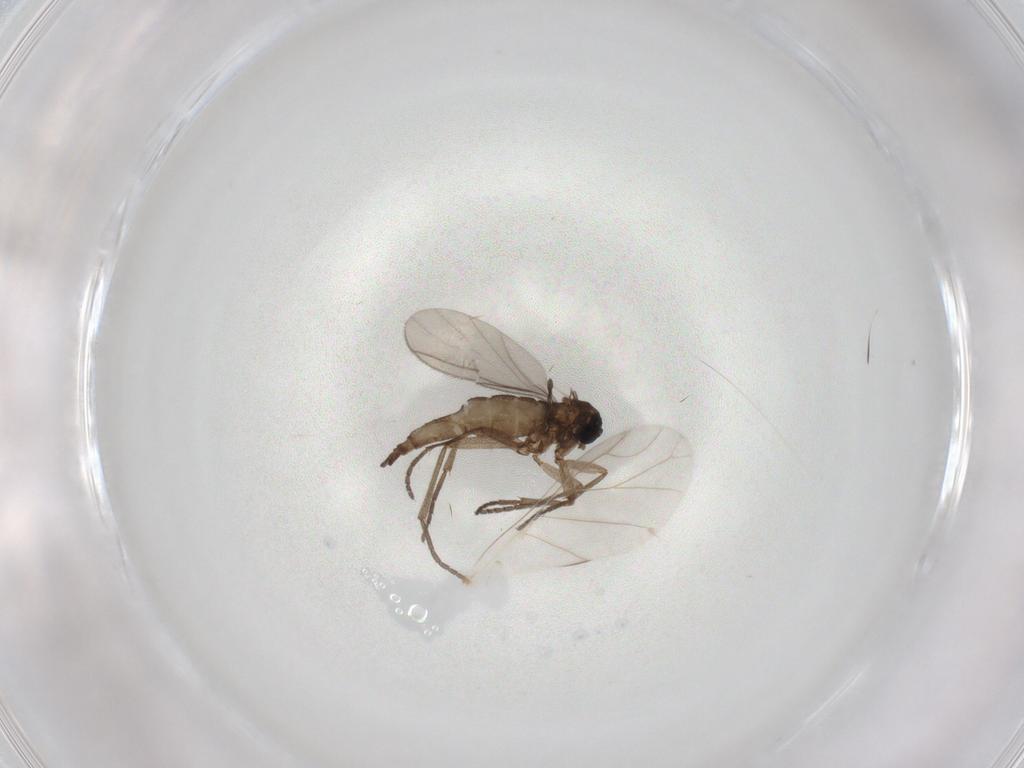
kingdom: Animalia
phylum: Arthropoda
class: Insecta
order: Diptera
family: Sciaridae
